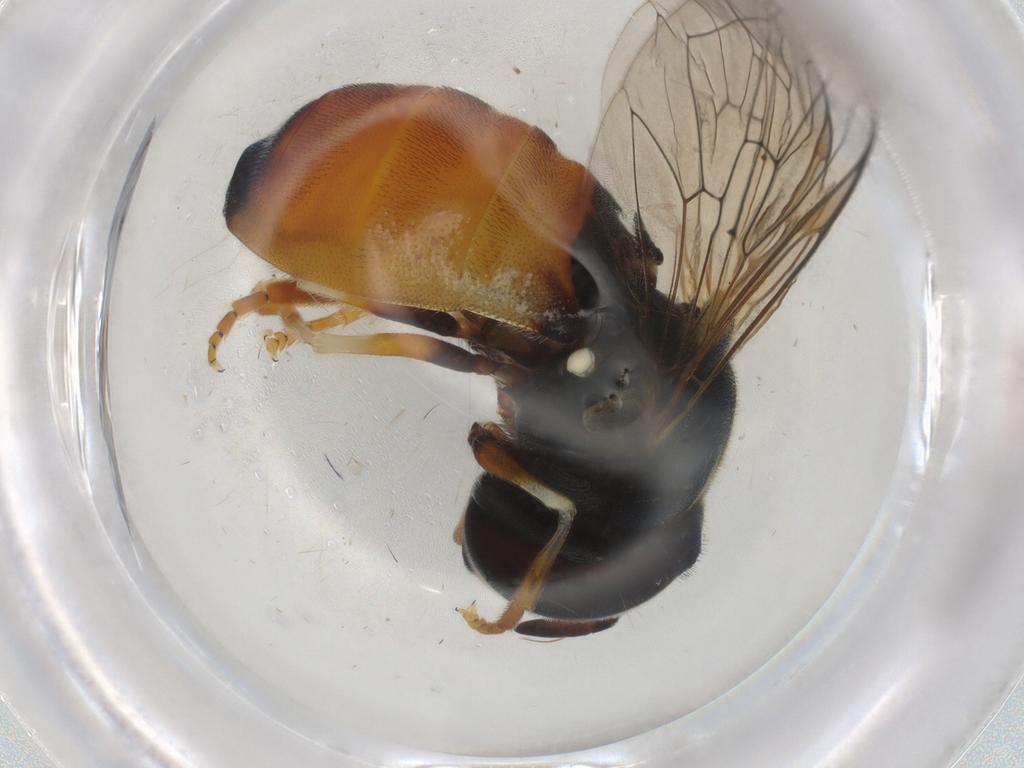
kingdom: Animalia
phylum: Arthropoda
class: Insecta
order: Diptera
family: Syrphidae
